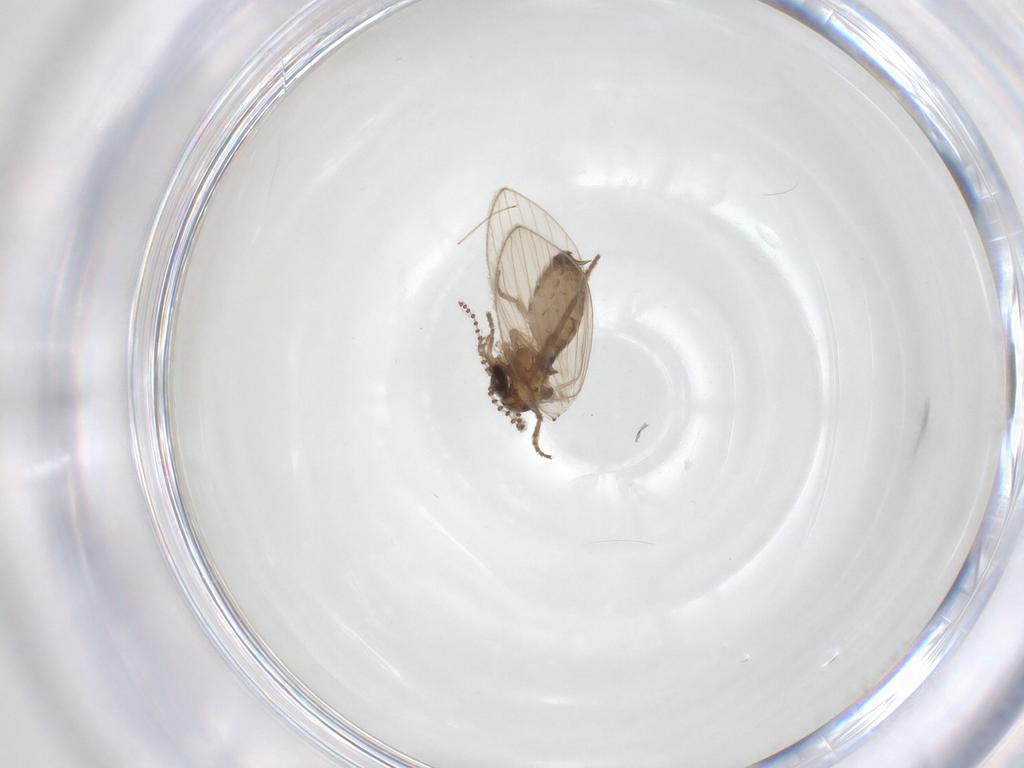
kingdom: Animalia
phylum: Arthropoda
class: Insecta
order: Diptera
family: Psychodidae
